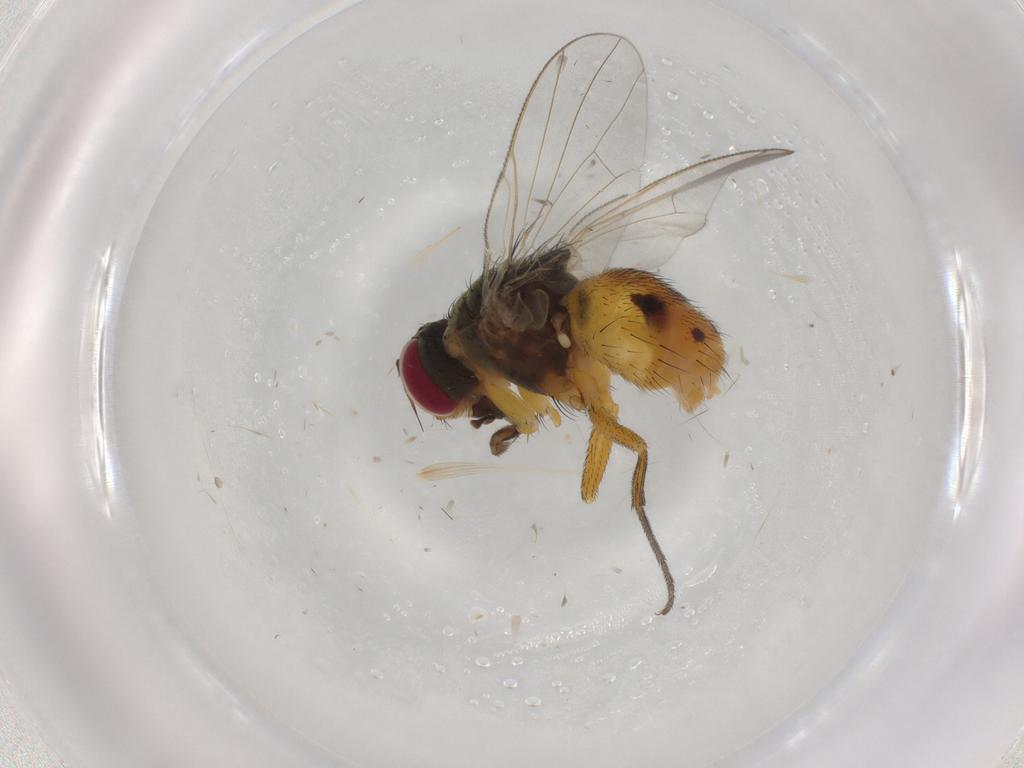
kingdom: Animalia
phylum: Arthropoda
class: Insecta
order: Diptera
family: Muscidae
